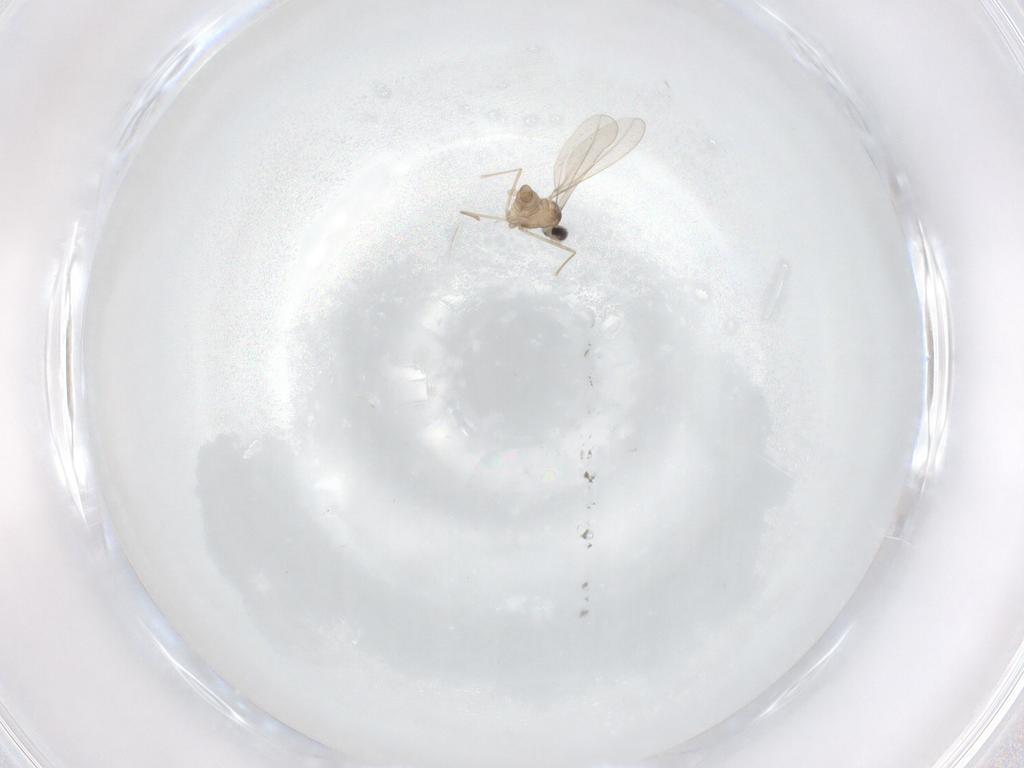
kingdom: Animalia
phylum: Arthropoda
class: Insecta
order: Diptera
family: Cecidomyiidae
